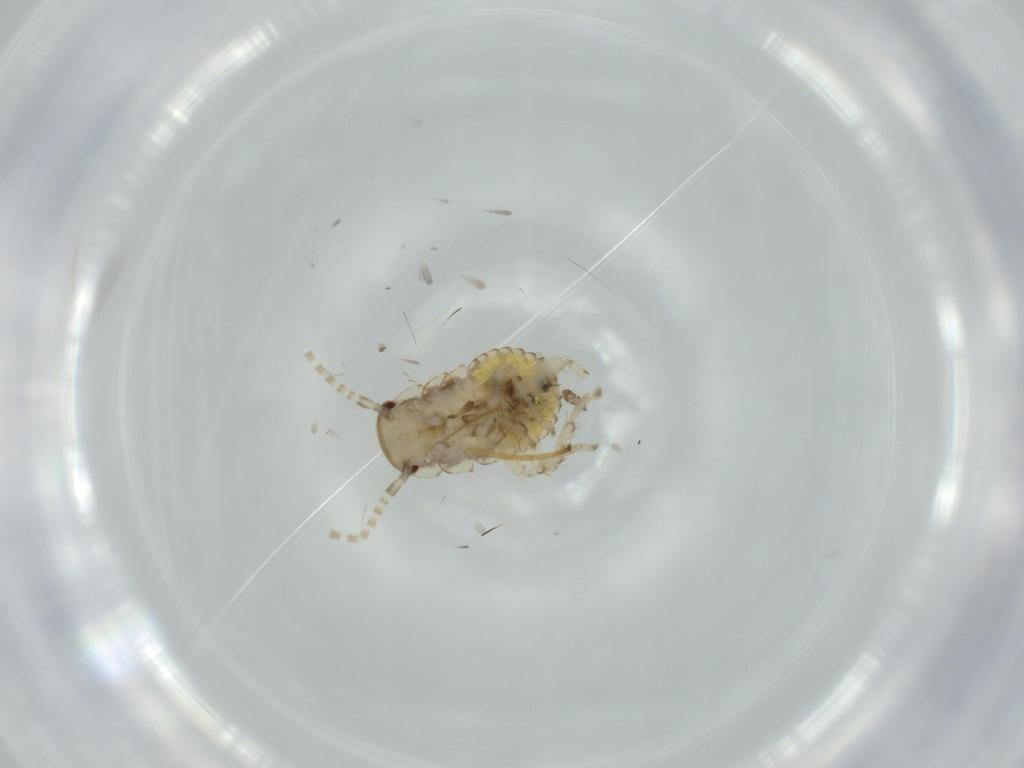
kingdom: Animalia
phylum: Arthropoda
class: Insecta
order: Blattodea
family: Ectobiidae
